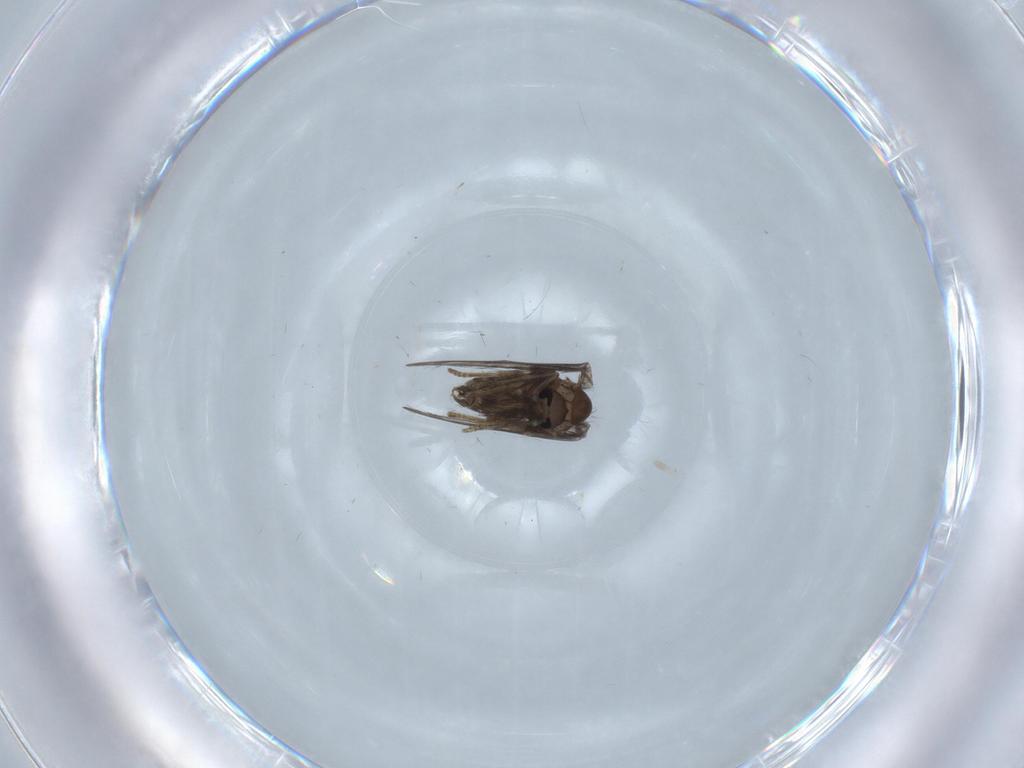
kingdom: Animalia
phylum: Arthropoda
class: Insecta
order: Diptera
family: Psychodidae
